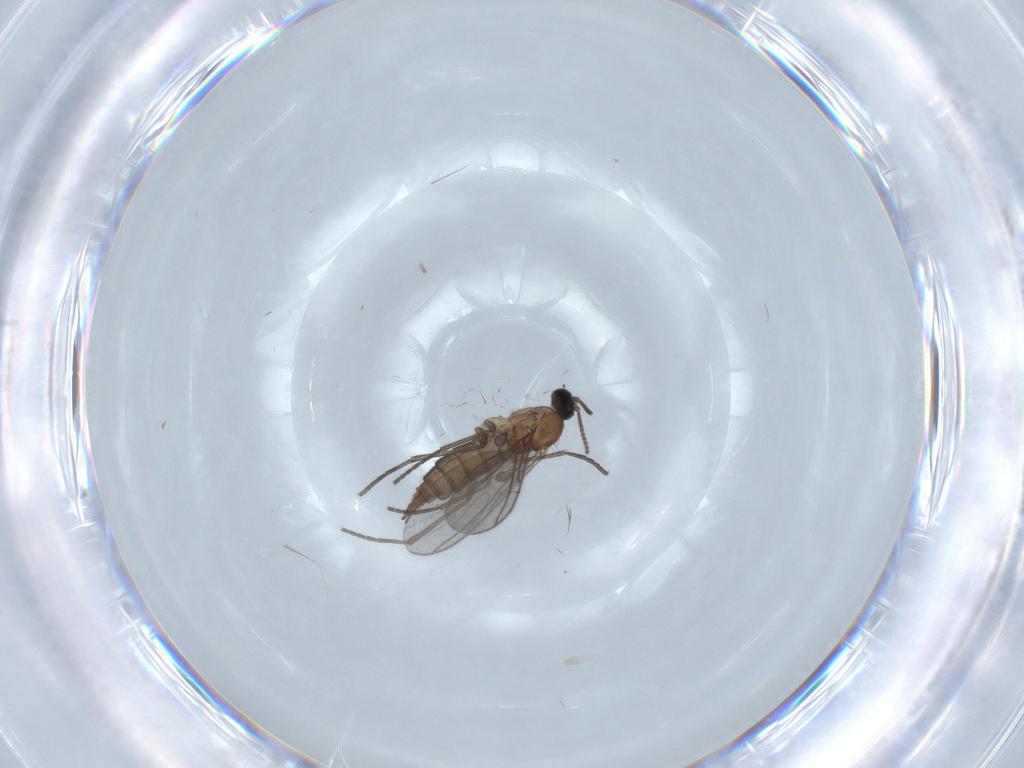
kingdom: Animalia
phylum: Arthropoda
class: Insecta
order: Diptera
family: Sciaridae
